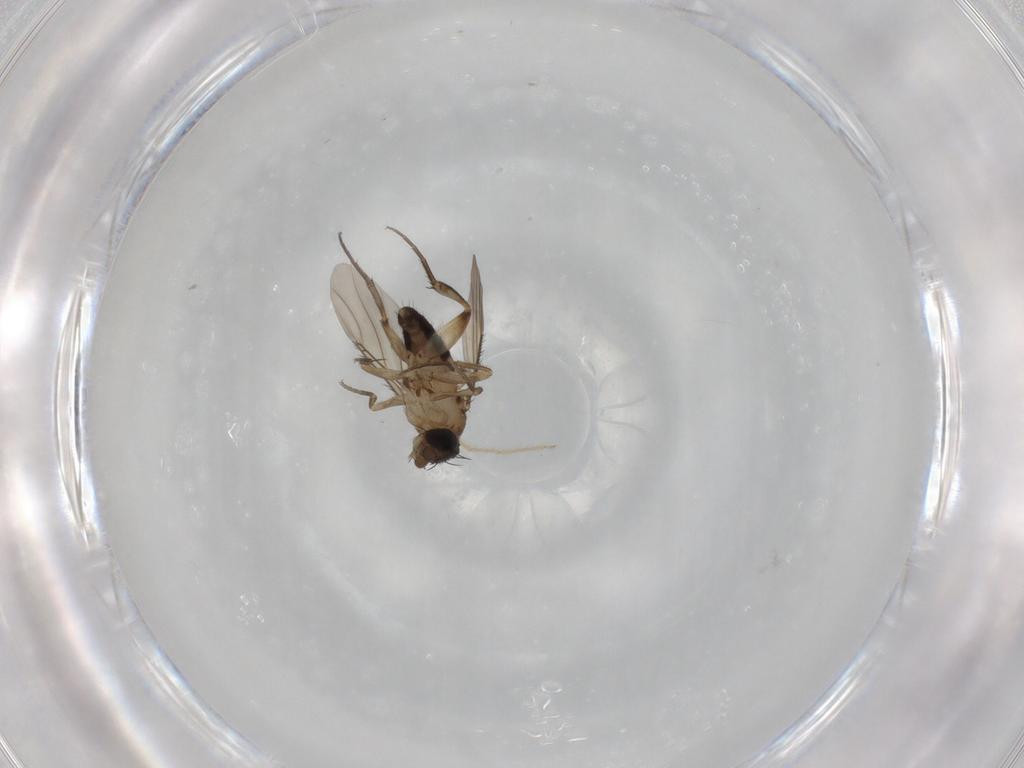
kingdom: Animalia
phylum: Arthropoda
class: Insecta
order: Diptera
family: Phoridae
